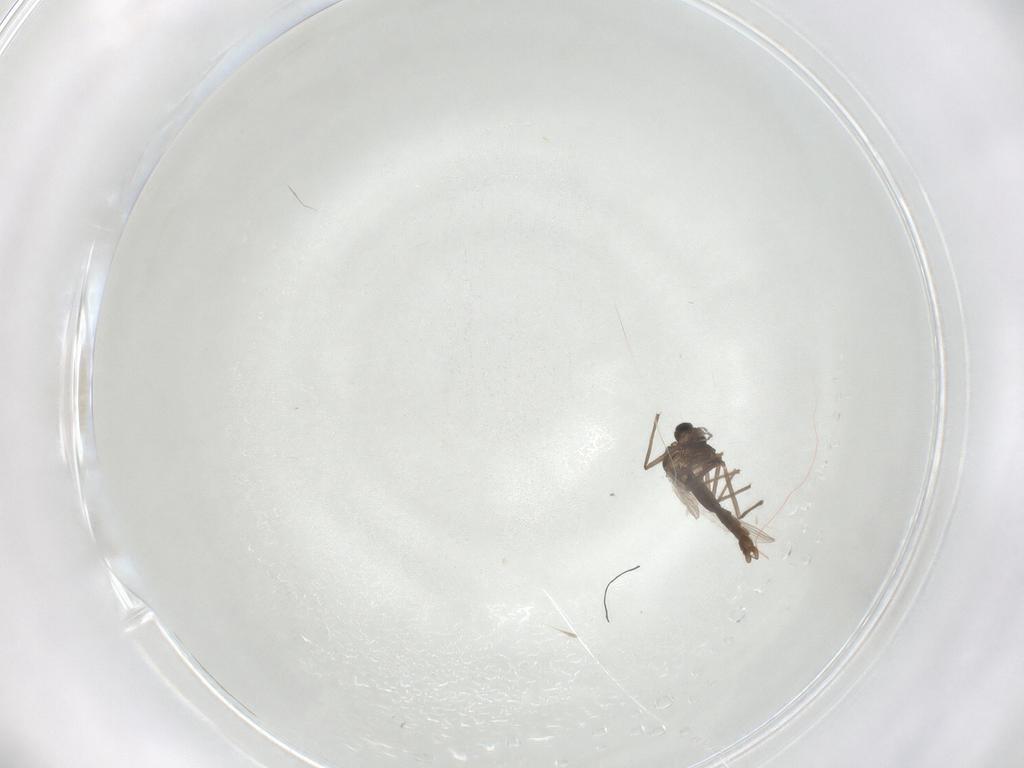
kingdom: Animalia
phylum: Arthropoda
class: Insecta
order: Diptera
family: Chironomidae
